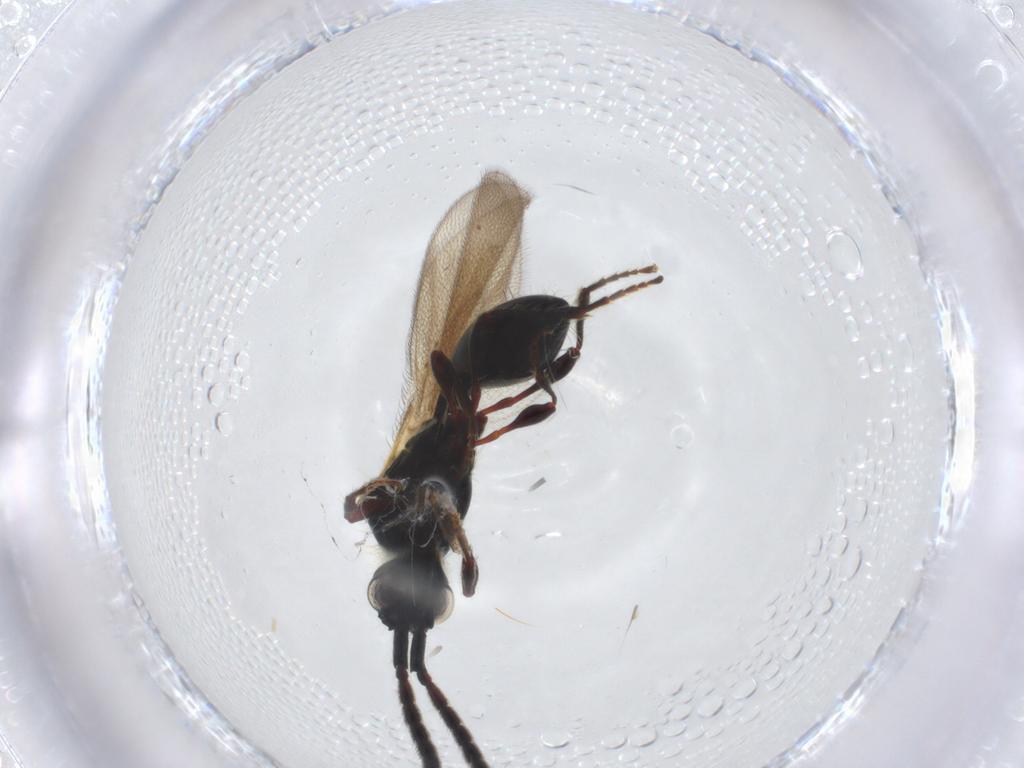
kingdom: Animalia
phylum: Arthropoda
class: Insecta
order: Hymenoptera
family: Diapriidae
